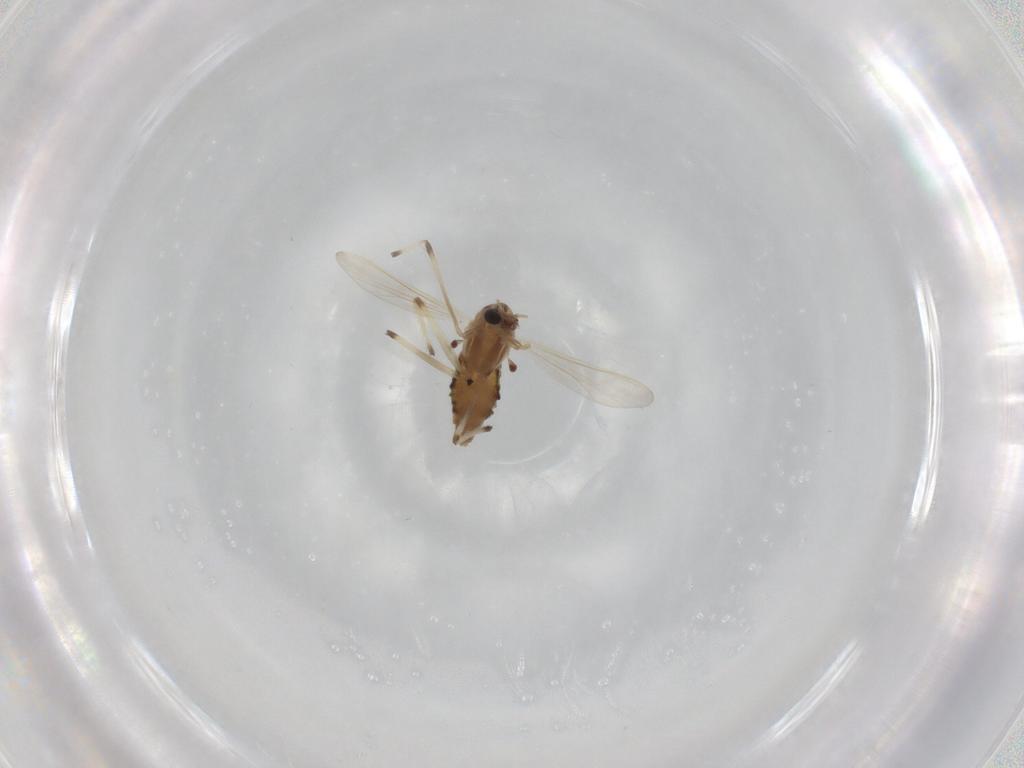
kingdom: Animalia
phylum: Arthropoda
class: Insecta
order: Diptera
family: Chironomidae
